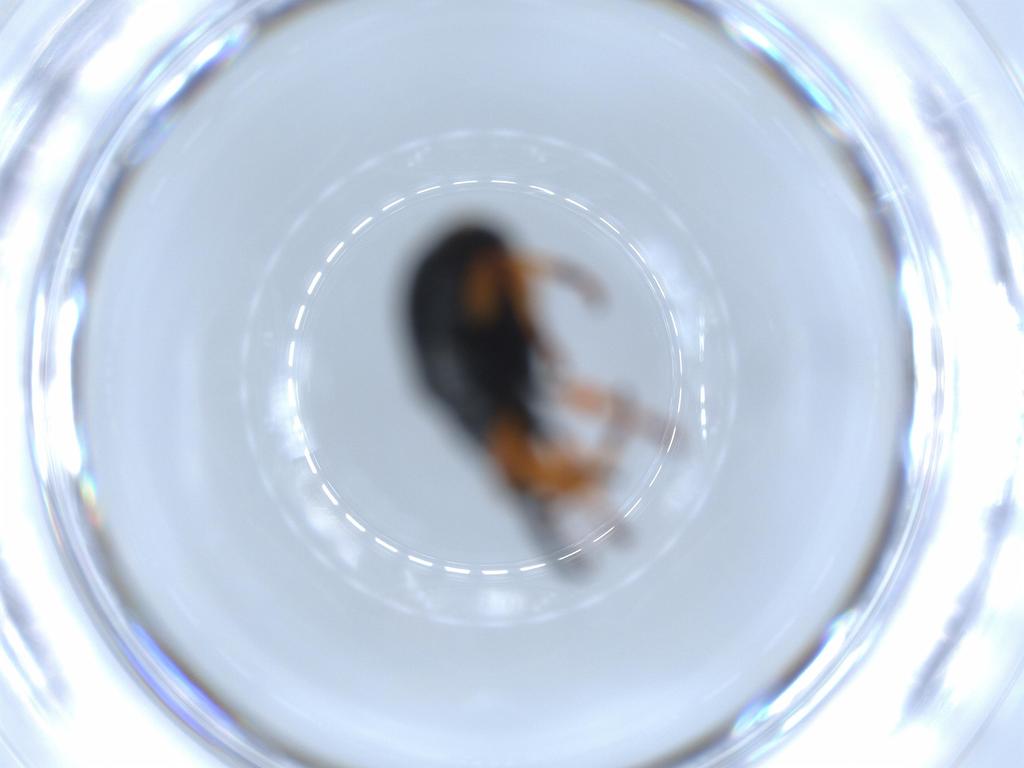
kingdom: Animalia
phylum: Arthropoda
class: Insecta
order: Coleoptera
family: Brentidae
